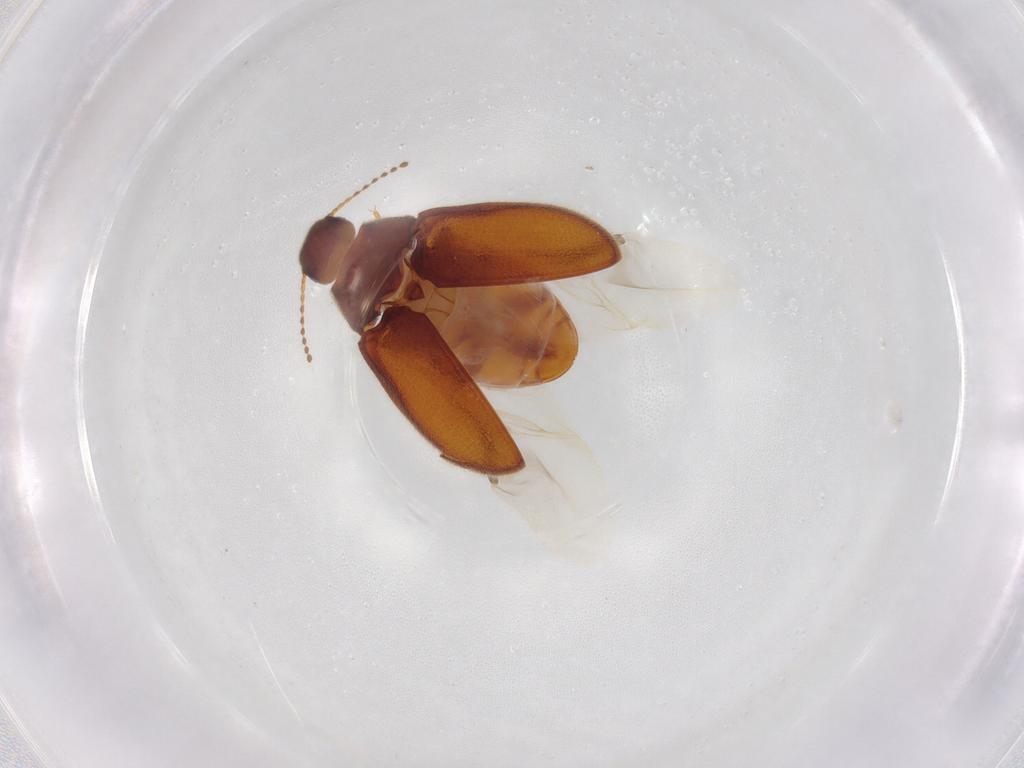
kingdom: Animalia
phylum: Arthropoda
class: Insecta
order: Coleoptera
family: Limnichidae
